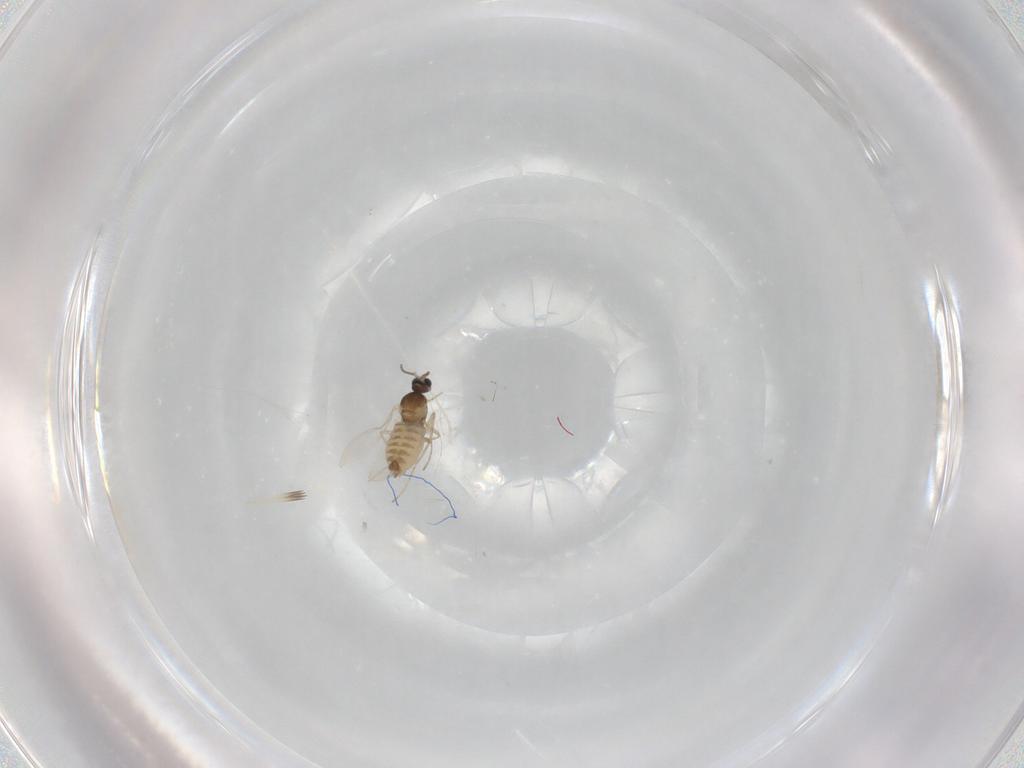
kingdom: Animalia
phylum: Arthropoda
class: Insecta
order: Diptera
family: Cecidomyiidae
